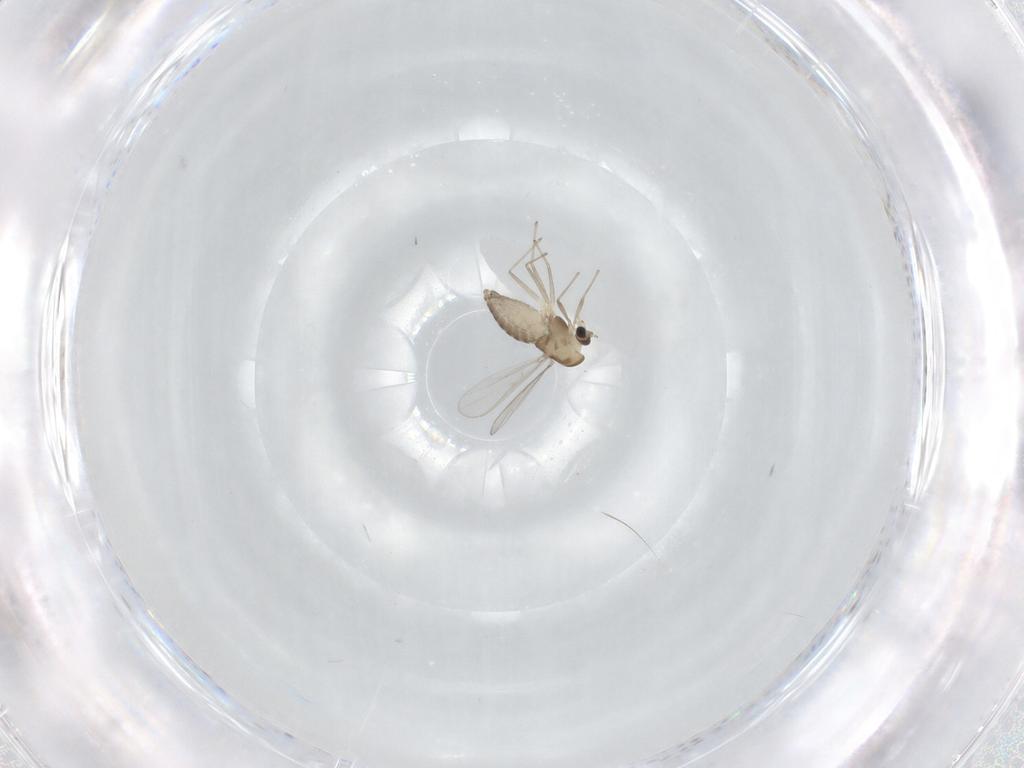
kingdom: Animalia
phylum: Arthropoda
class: Insecta
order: Diptera
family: Chironomidae
